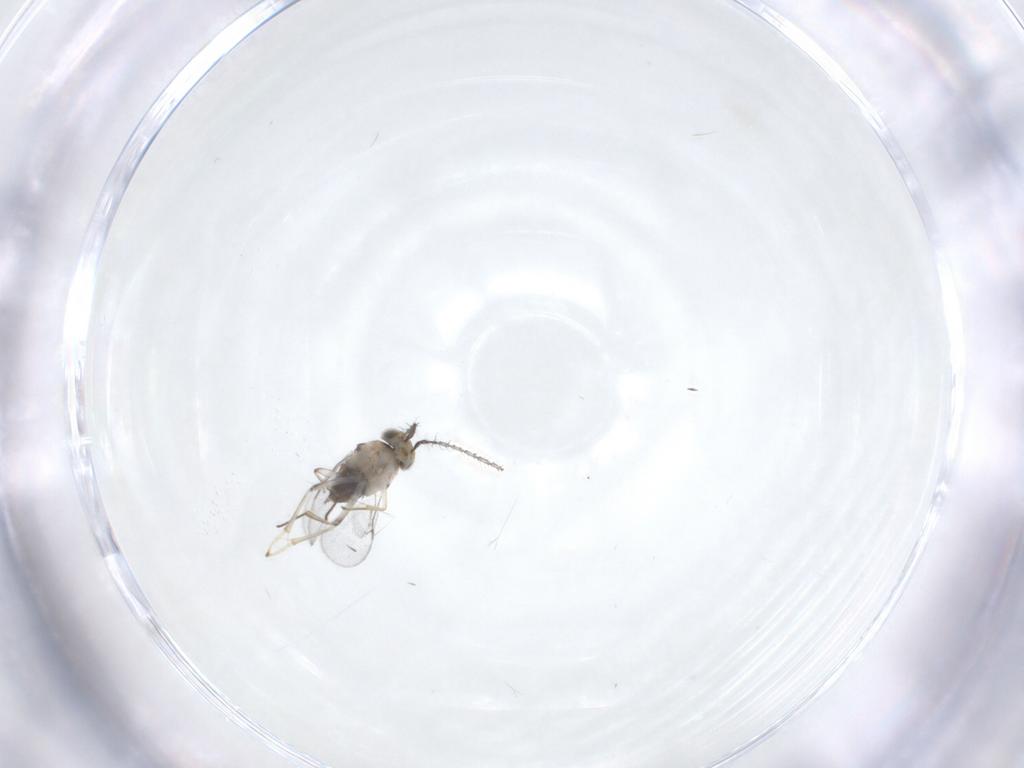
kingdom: Animalia
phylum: Arthropoda
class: Insecta
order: Hymenoptera
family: Encyrtidae
